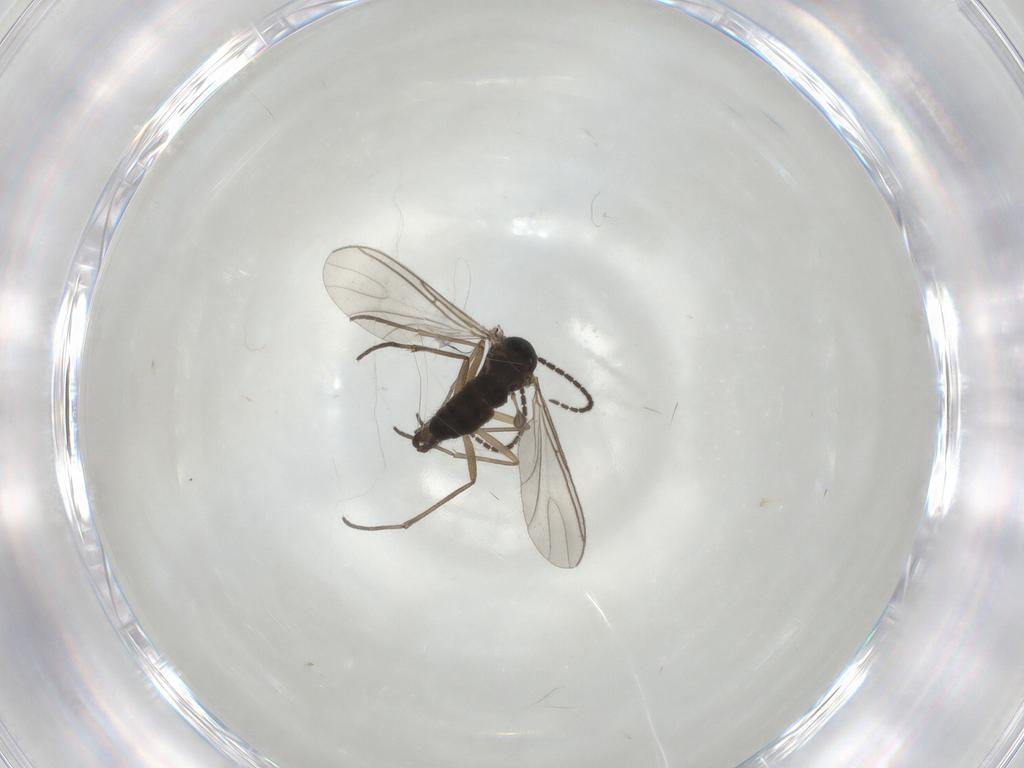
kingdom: Animalia
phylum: Arthropoda
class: Insecta
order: Diptera
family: Sciaridae
